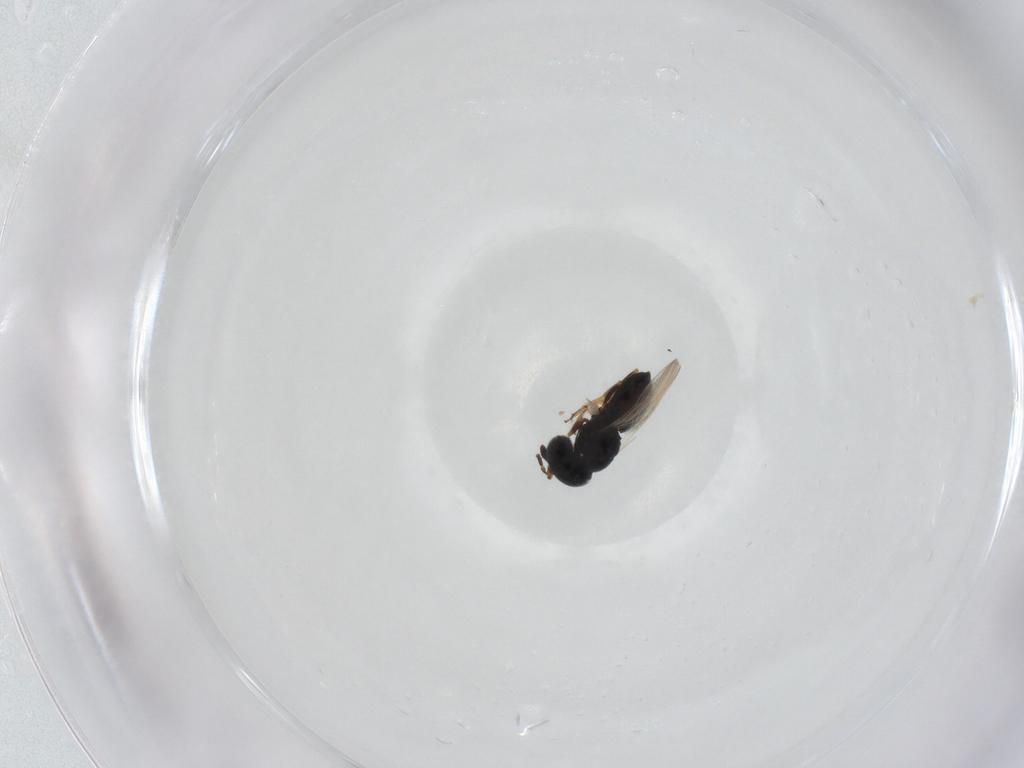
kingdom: Animalia
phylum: Arthropoda
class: Insecta
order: Hymenoptera
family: Scelionidae
